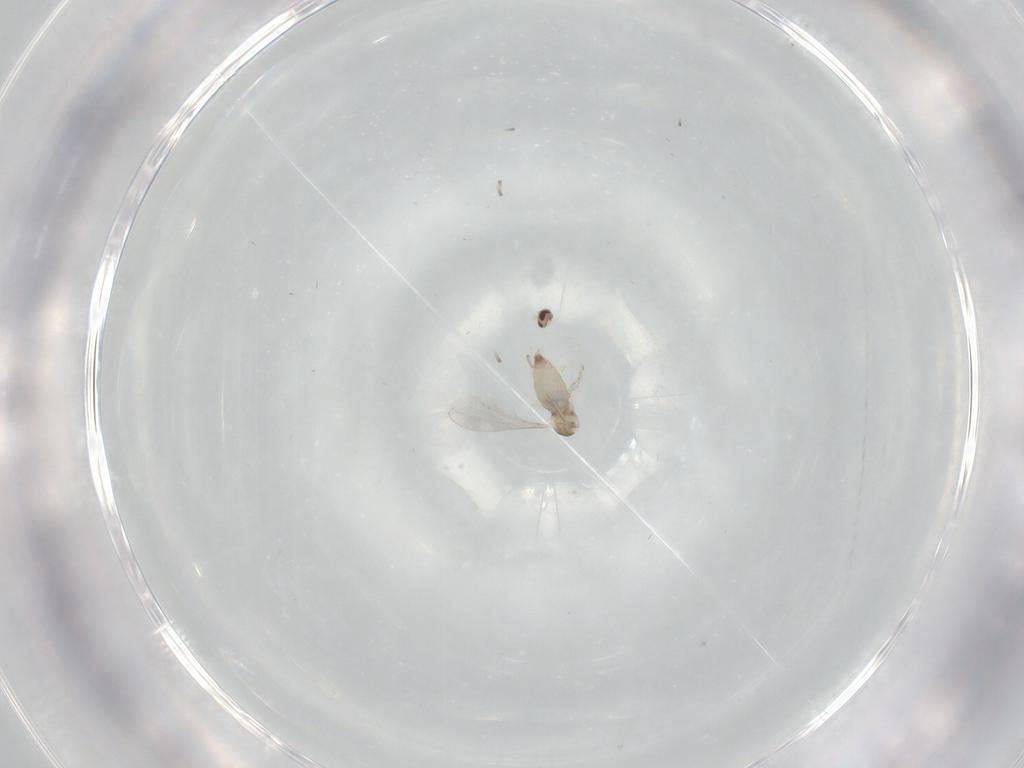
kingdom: Animalia
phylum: Arthropoda
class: Insecta
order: Diptera
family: Cecidomyiidae
